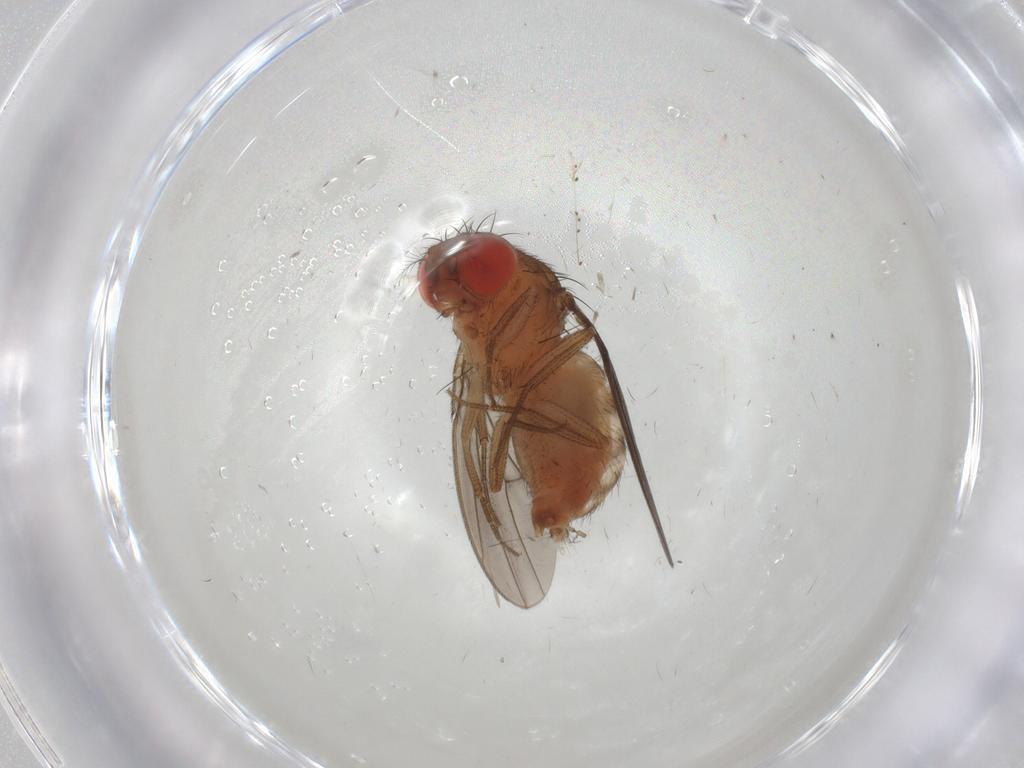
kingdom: Animalia
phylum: Arthropoda
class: Insecta
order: Diptera
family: Drosophilidae
